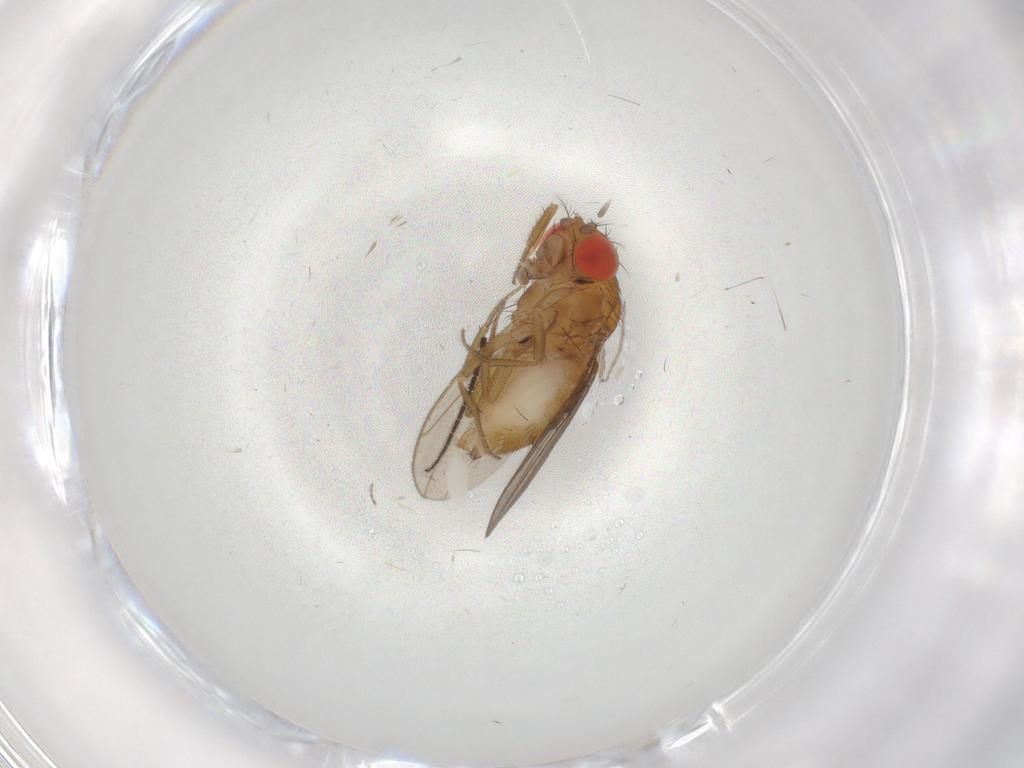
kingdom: Animalia
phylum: Arthropoda
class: Insecta
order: Diptera
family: Drosophilidae
